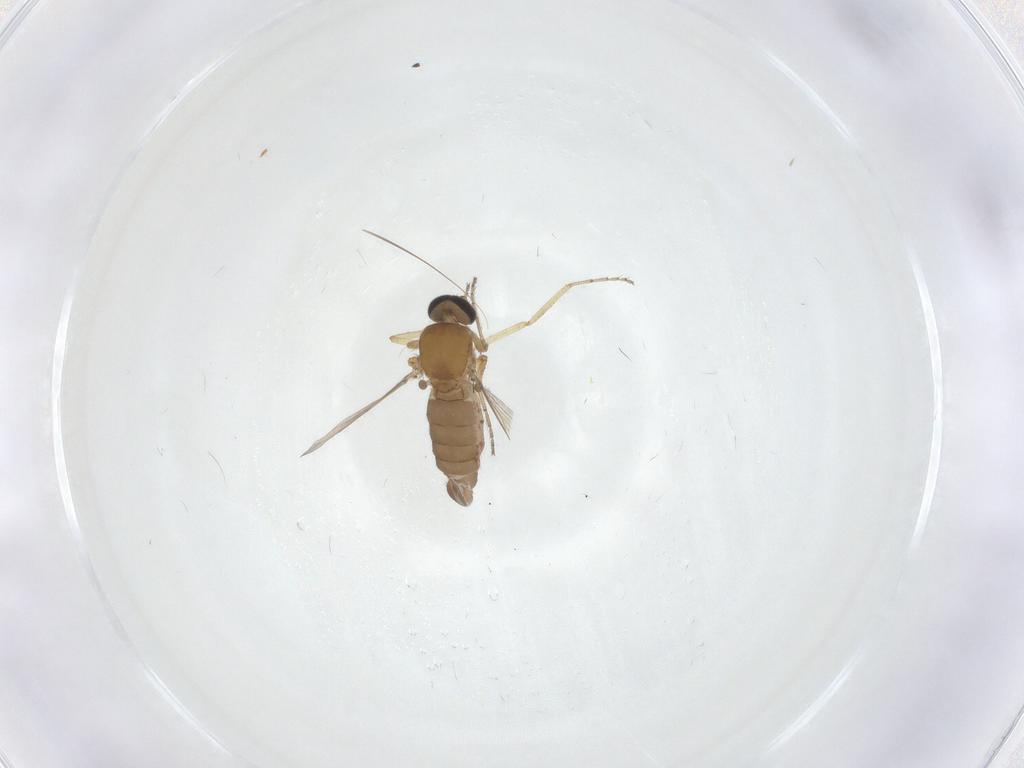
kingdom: Animalia
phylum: Arthropoda
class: Insecta
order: Diptera
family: Ceratopogonidae
